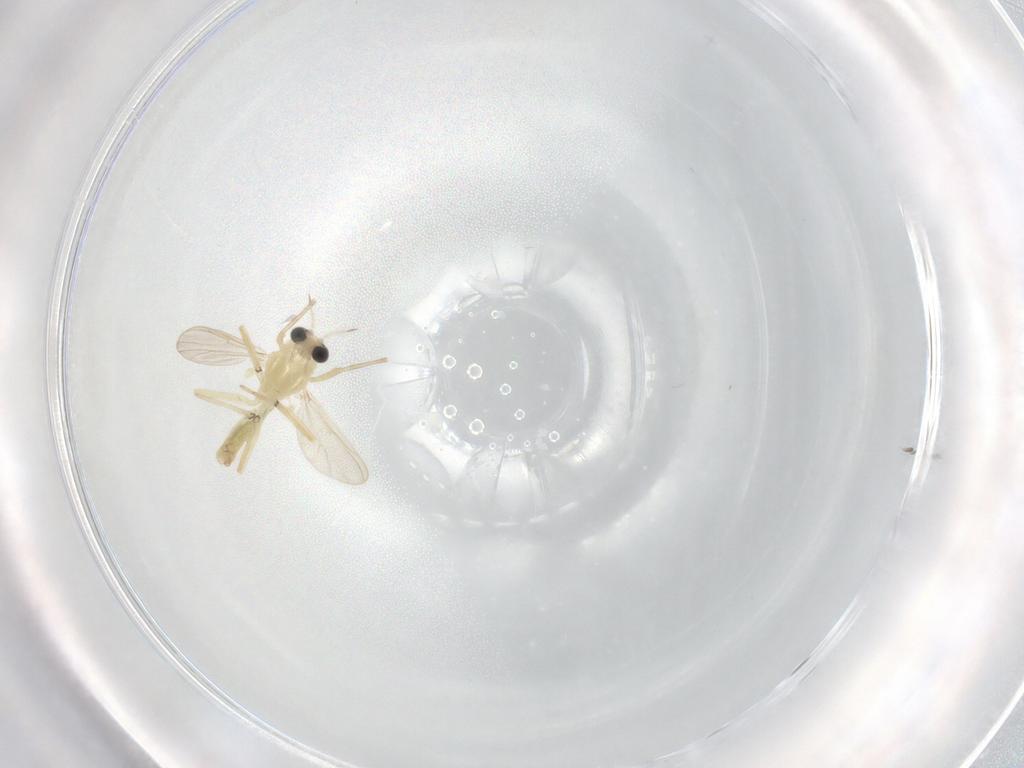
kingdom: Animalia
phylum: Arthropoda
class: Insecta
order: Diptera
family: Chironomidae
